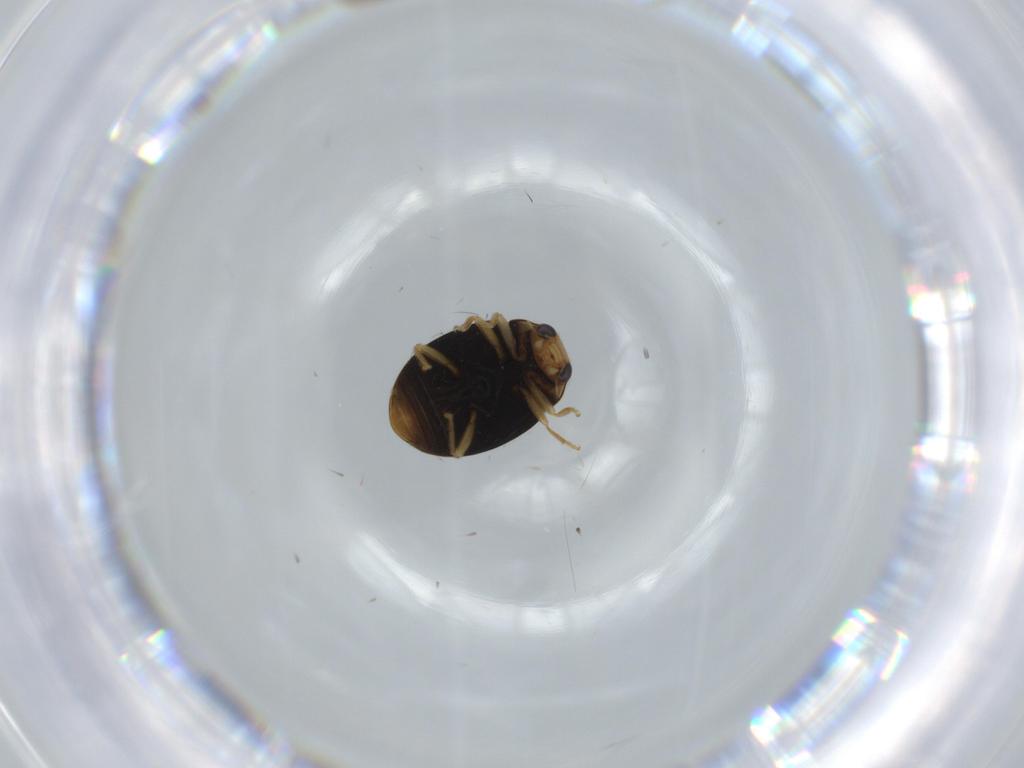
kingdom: Animalia
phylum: Arthropoda
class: Insecta
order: Coleoptera
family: Coccinellidae
